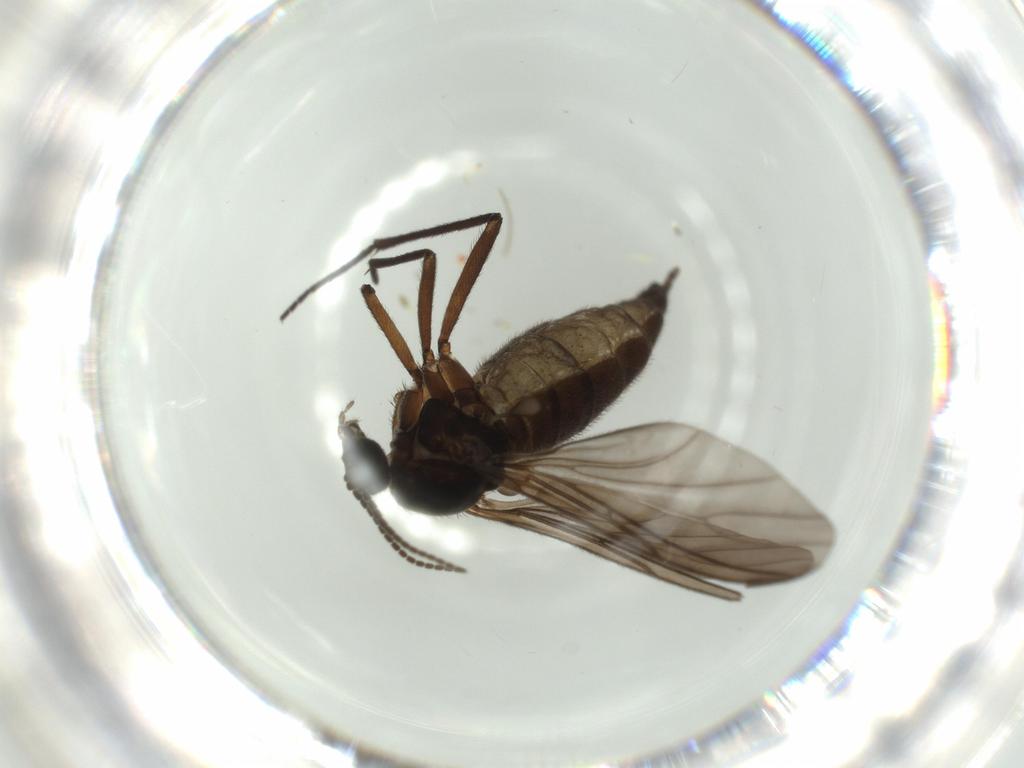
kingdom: Animalia
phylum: Arthropoda
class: Insecta
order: Diptera
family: Sciaridae
